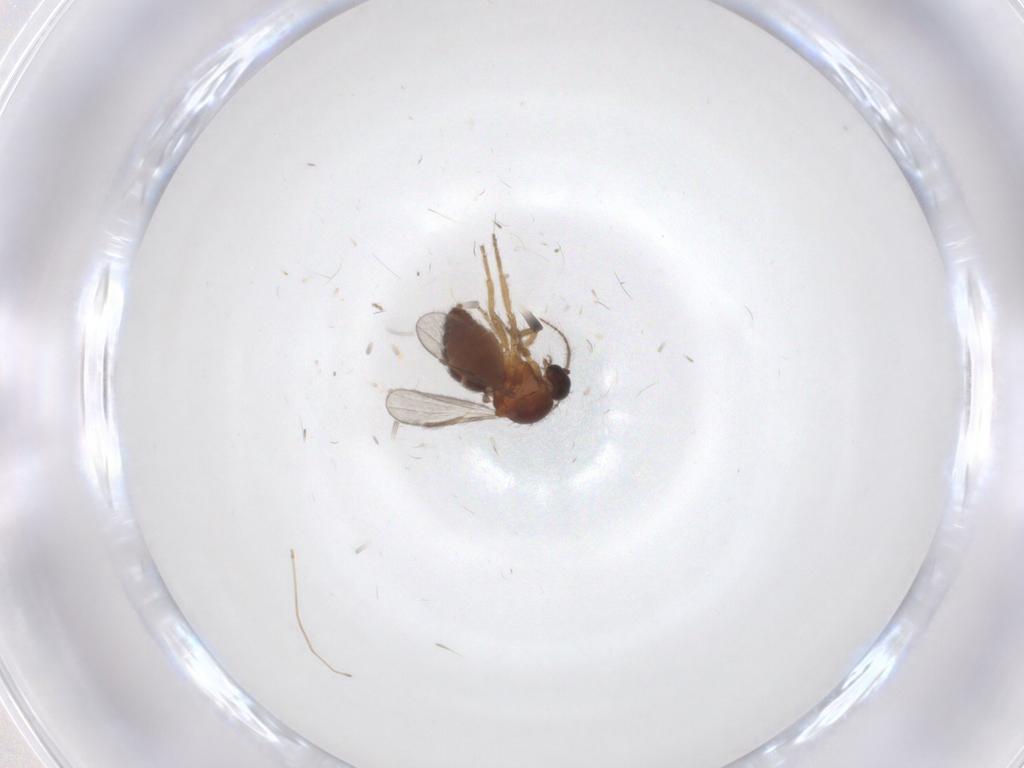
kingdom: Animalia
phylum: Arthropoda
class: Insecta
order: Diptera
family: Ceratopogonidae
